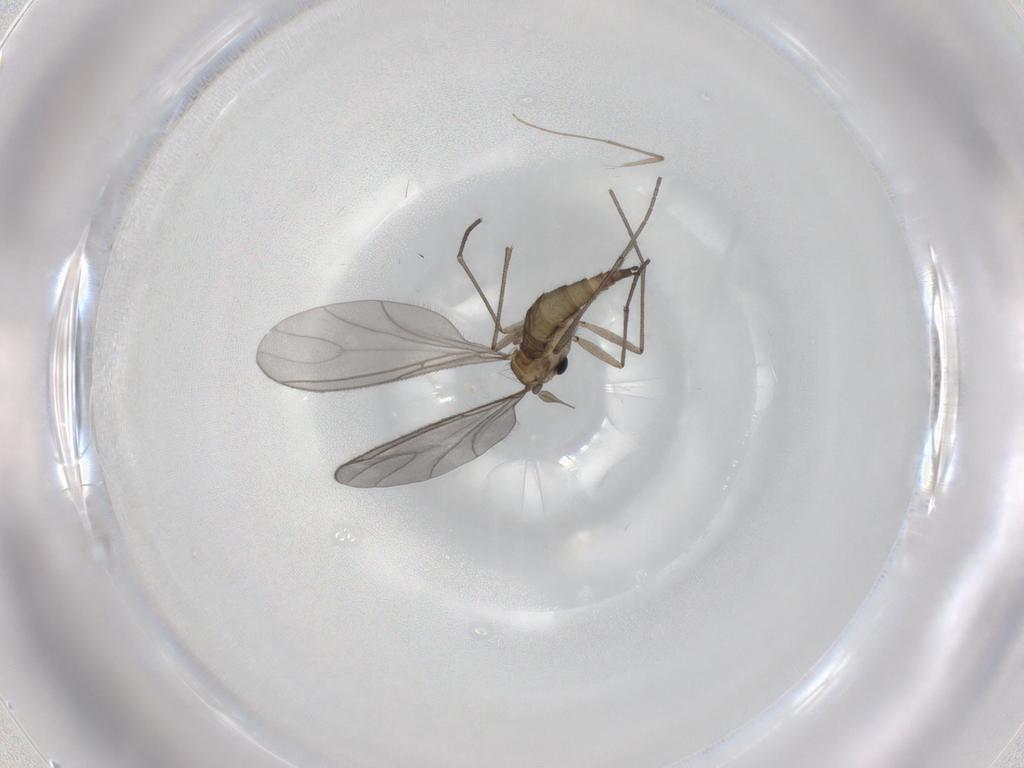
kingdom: Animalia
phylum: Arthropoda
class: Insecta
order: Diptera
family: Sciaridae
